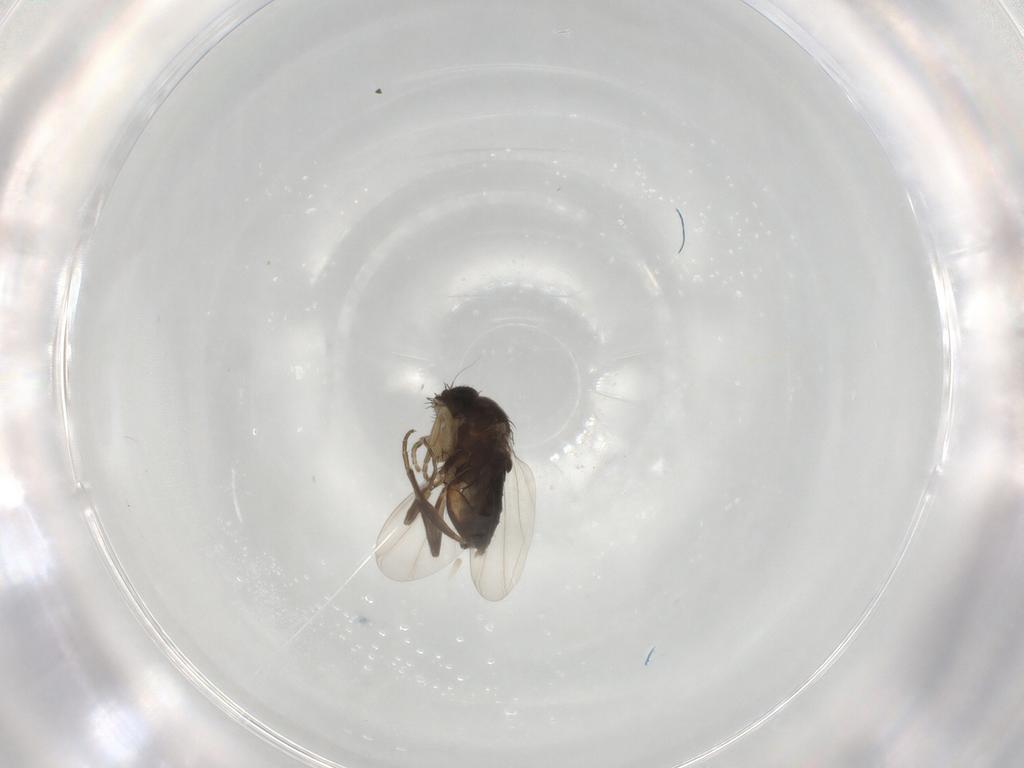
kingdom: Animalia
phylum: Arthropoda
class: Insecta
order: Diptera
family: Phoridae
